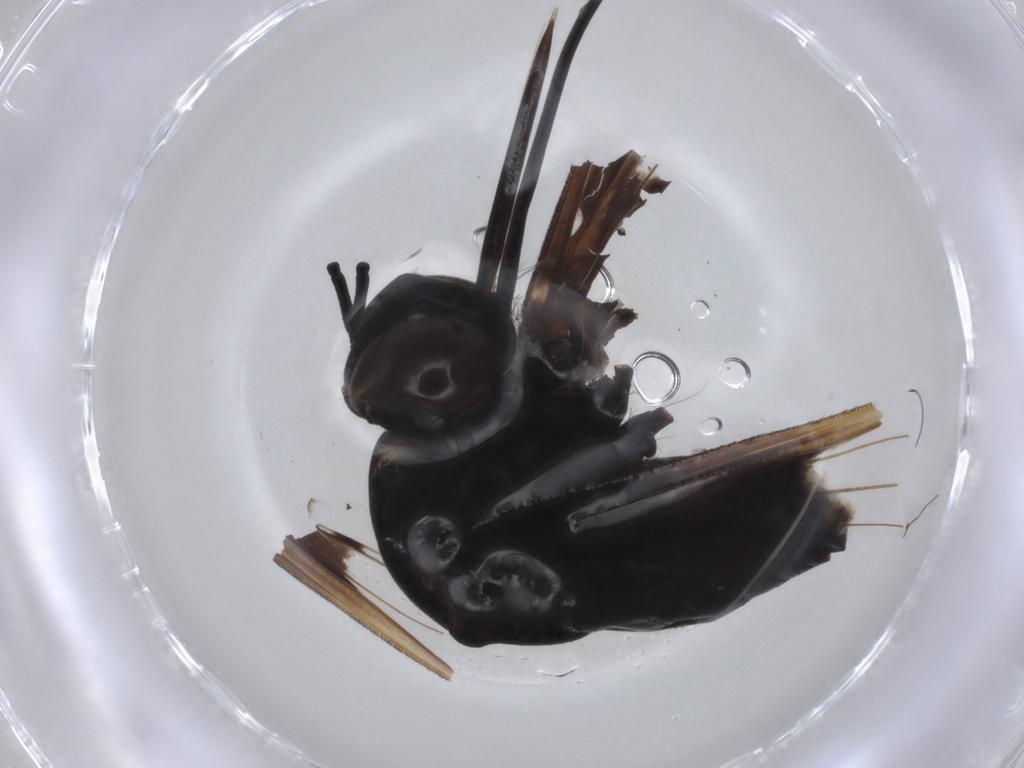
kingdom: Animalia
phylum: Arthropoda
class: Insecta
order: Diptera
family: Bombyliidae
